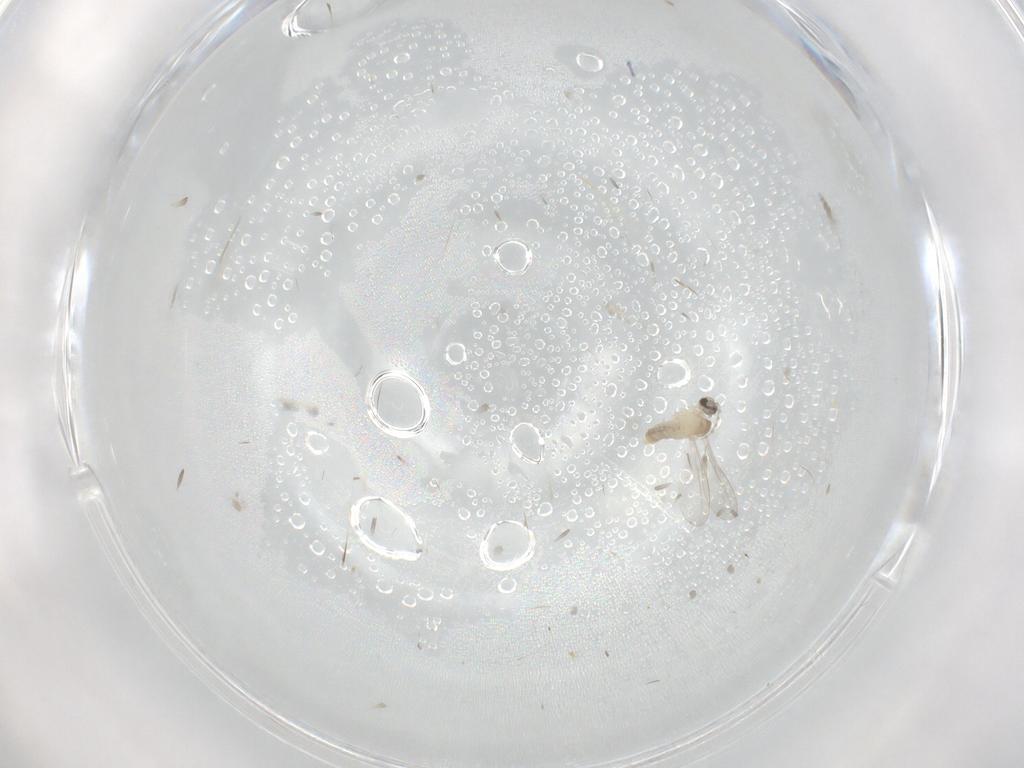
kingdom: Animalia
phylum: Arthropoda
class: Insecta
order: Diptera
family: Cecidomyiidae
